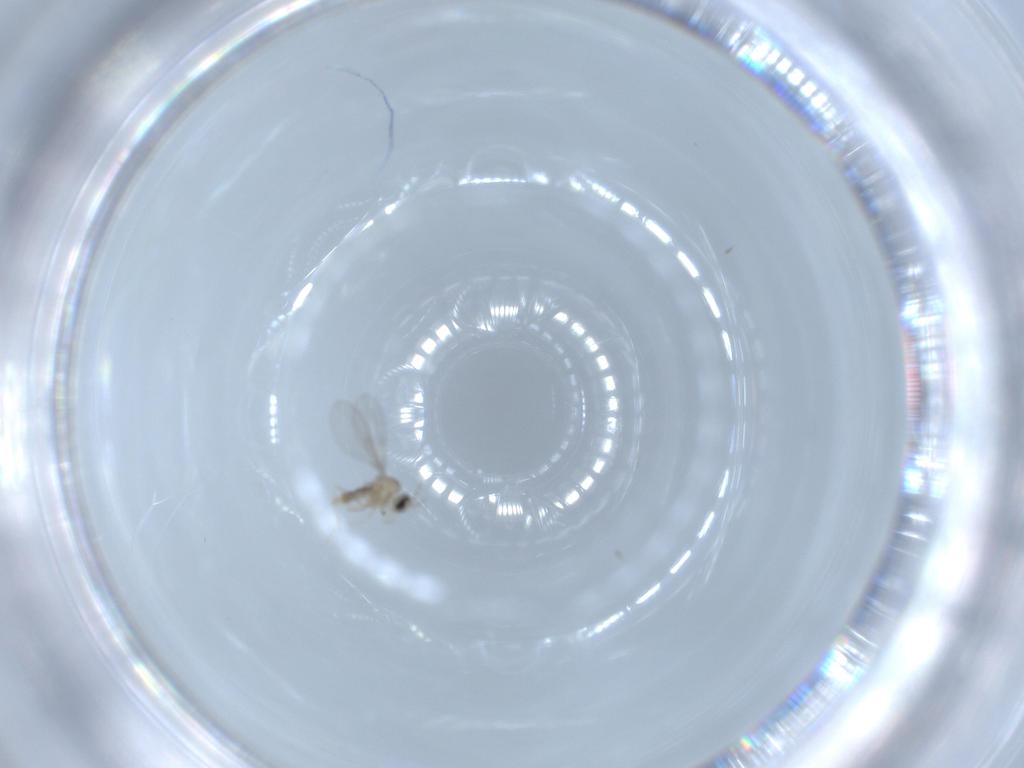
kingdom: Animalia
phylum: Arthropoda
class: Insecta
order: Diptera
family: Cecidomyiidae
